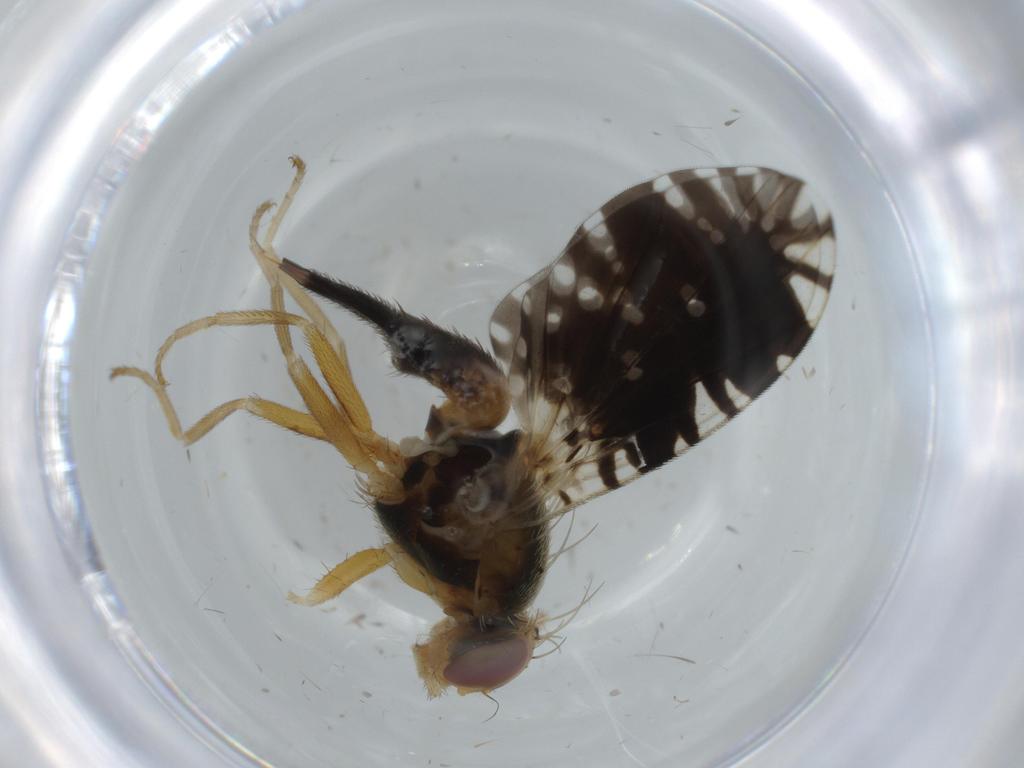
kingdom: Animalia
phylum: Arthropoda
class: Insecta
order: Diptera
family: Tephritidae
